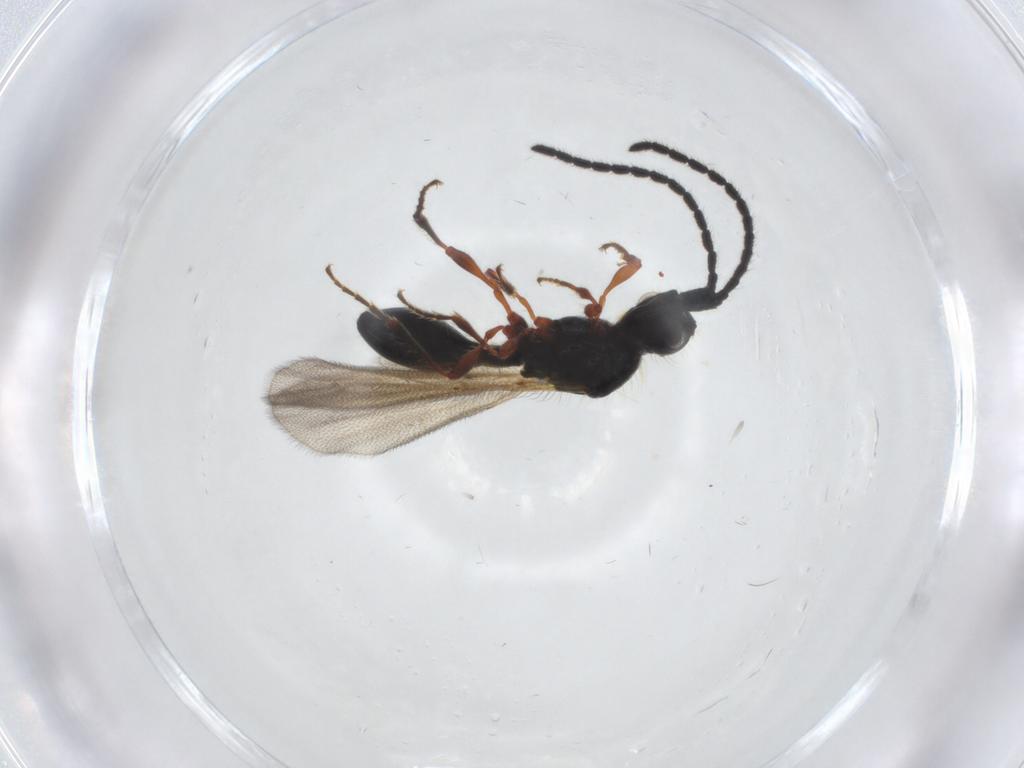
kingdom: Animalia
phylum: Arthropoda
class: Insecta
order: Hymenoptera
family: Diapriidae
